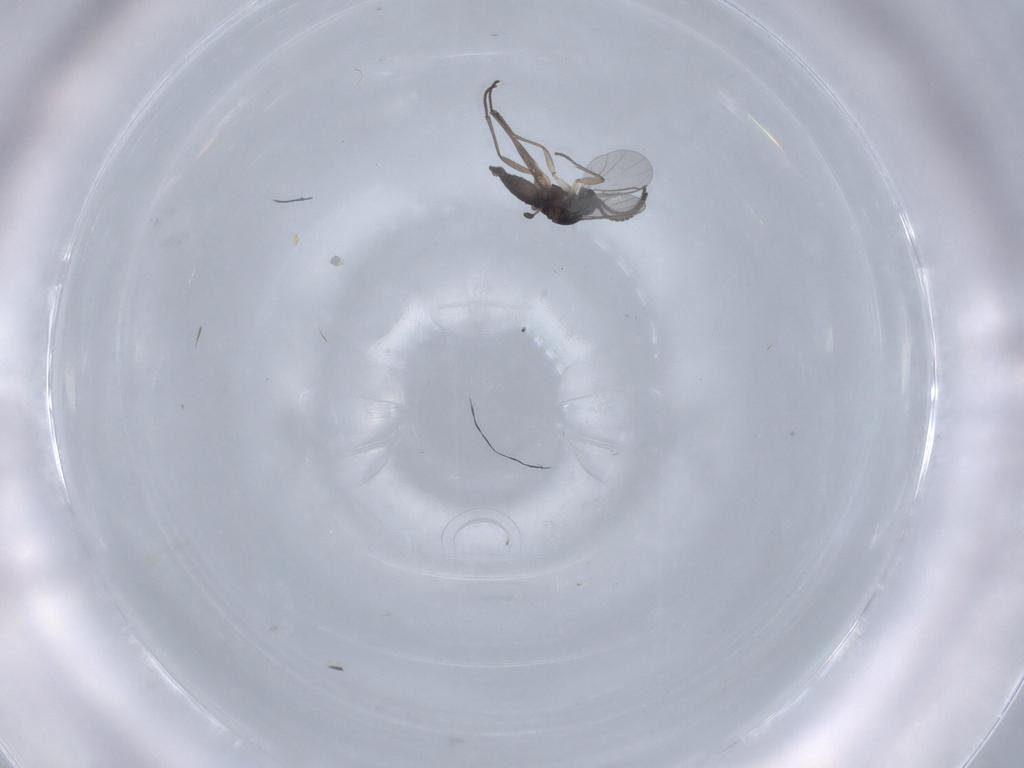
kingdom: Animalia
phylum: Arthropoda
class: Insecta
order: Diptera
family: Sciaridae
